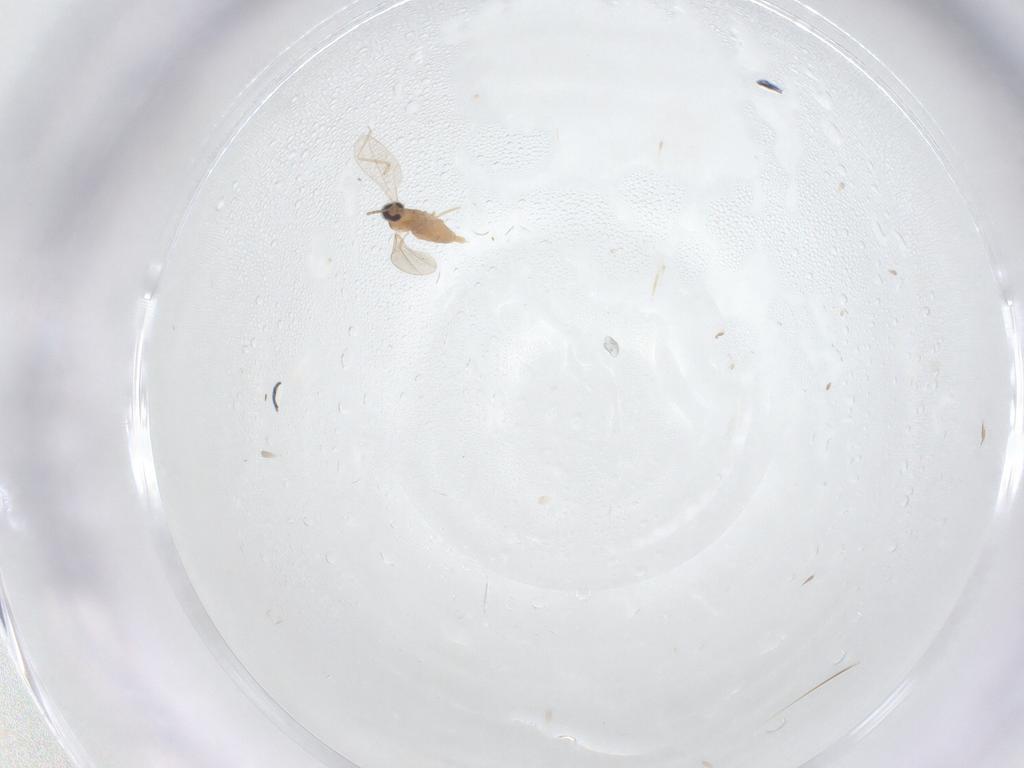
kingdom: Animalia
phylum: Arthropoda
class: Insecta
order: Diptera
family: Cecidomyiidae
